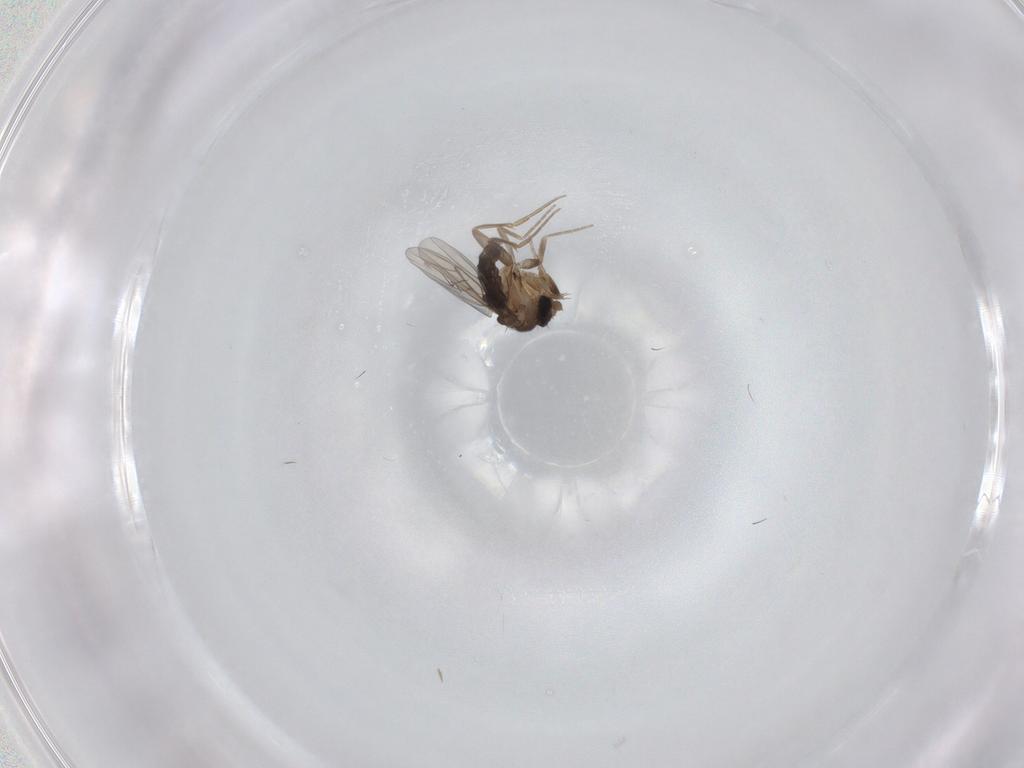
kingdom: Animalia
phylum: Arthropoda
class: Insecta
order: Diptera
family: Phoridae
